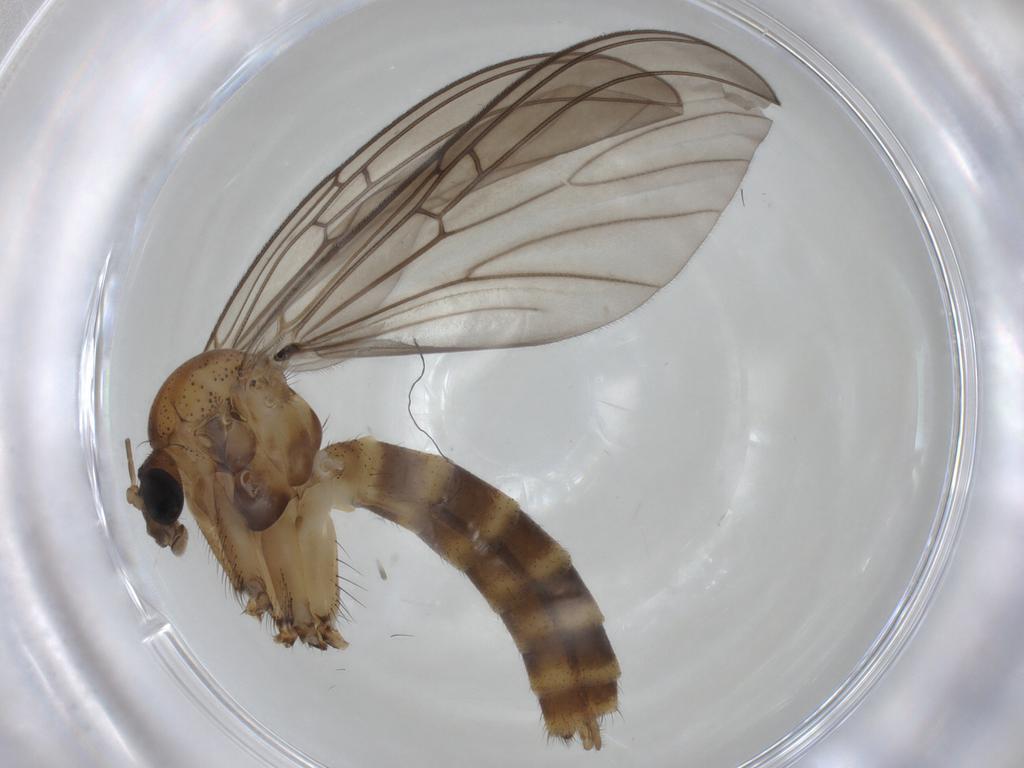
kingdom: Animalia
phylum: Arthropoda
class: Insecta
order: Diptera
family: Mycetophilidae
